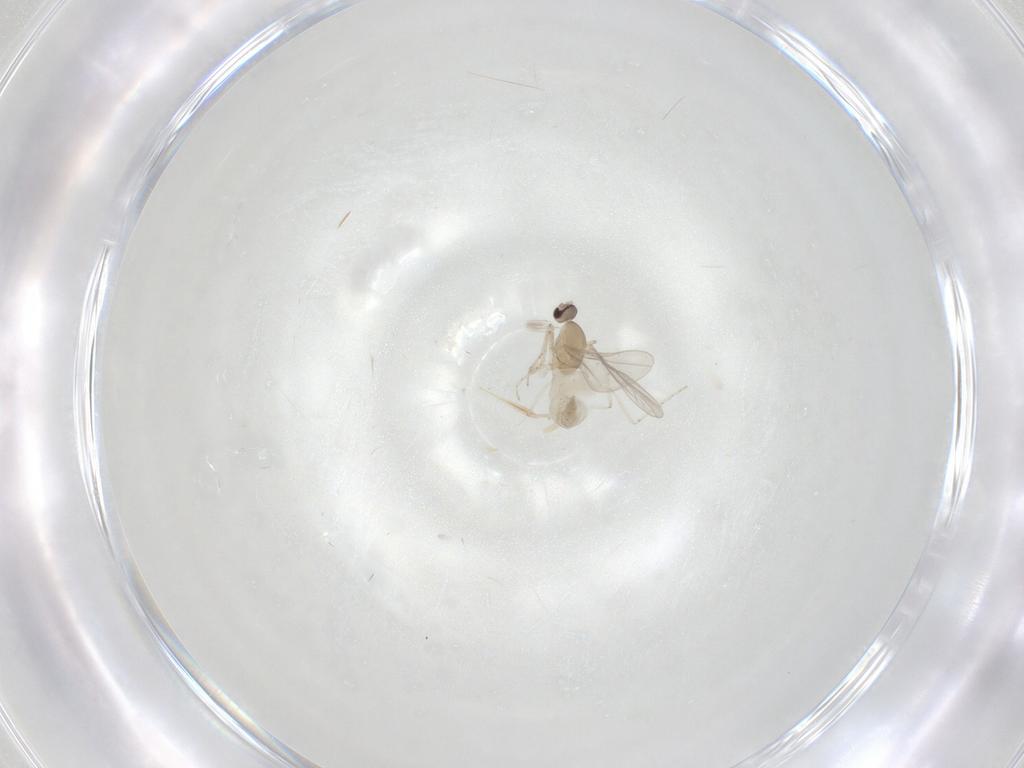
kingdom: Animalia
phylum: Arthropoda
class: Insecta
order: Diptera
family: Cecidomyiidae
